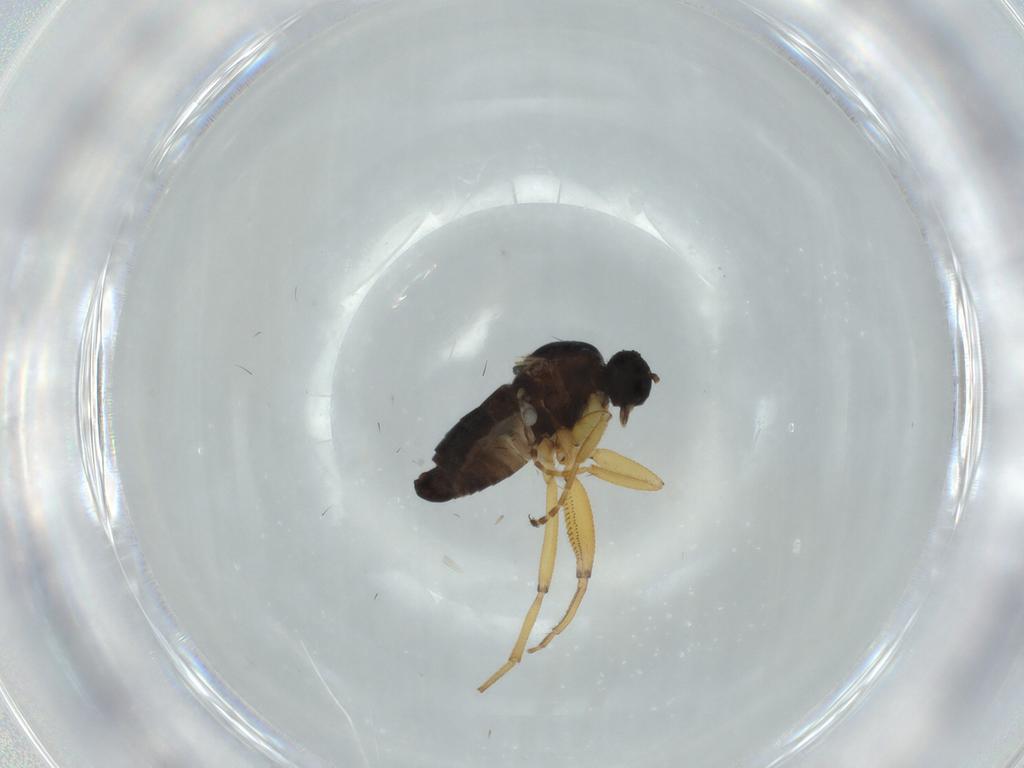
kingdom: Animalia
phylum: Arthropoda
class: Insecta
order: Diptera
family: Hybotidae
